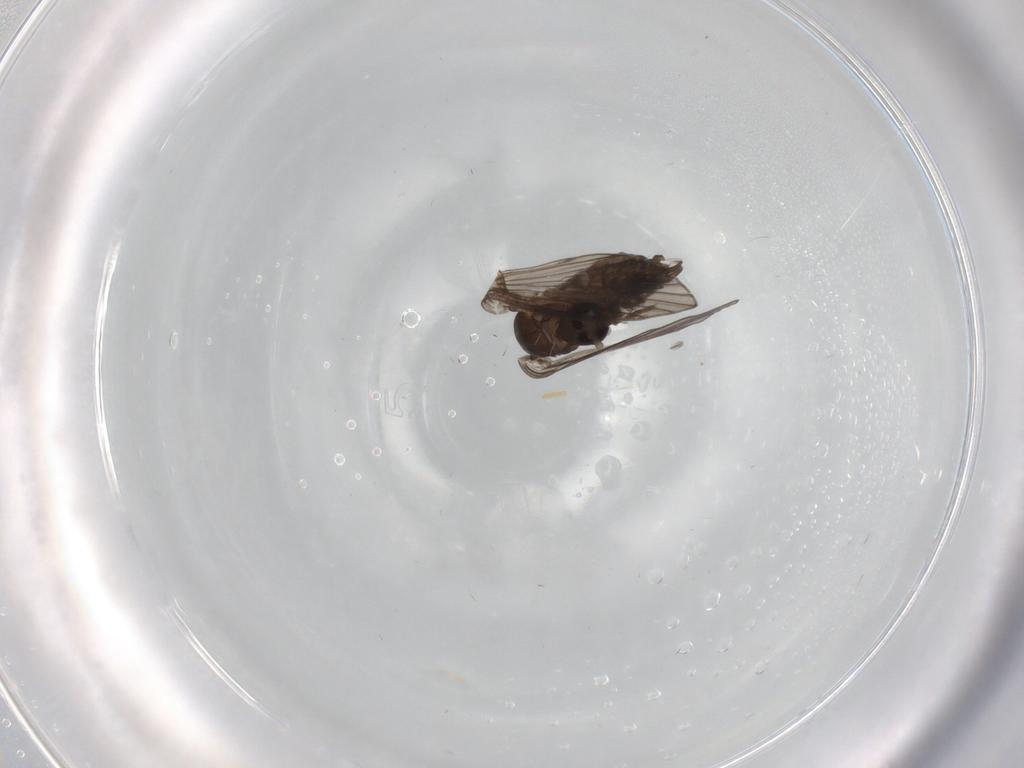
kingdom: Animalia
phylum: Arthropoda
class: Insecta
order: Diptera
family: Psychodidae
